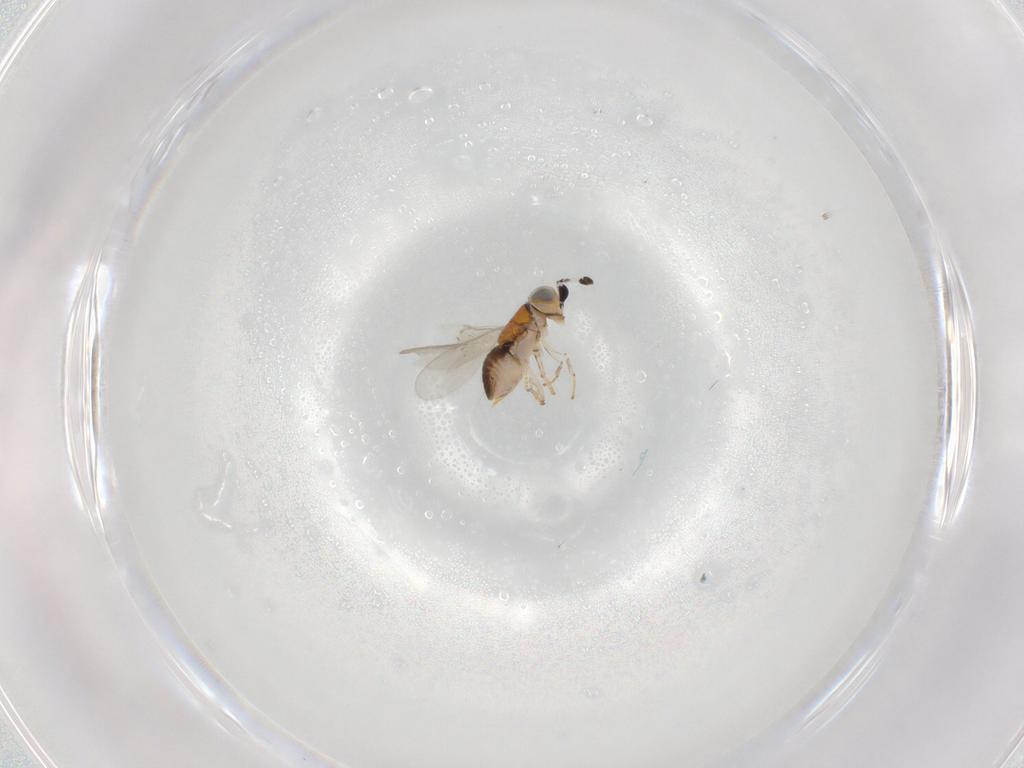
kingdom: Animalia
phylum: Arthropoda
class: Insecta
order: Hymenoptera
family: Encyrtidae
